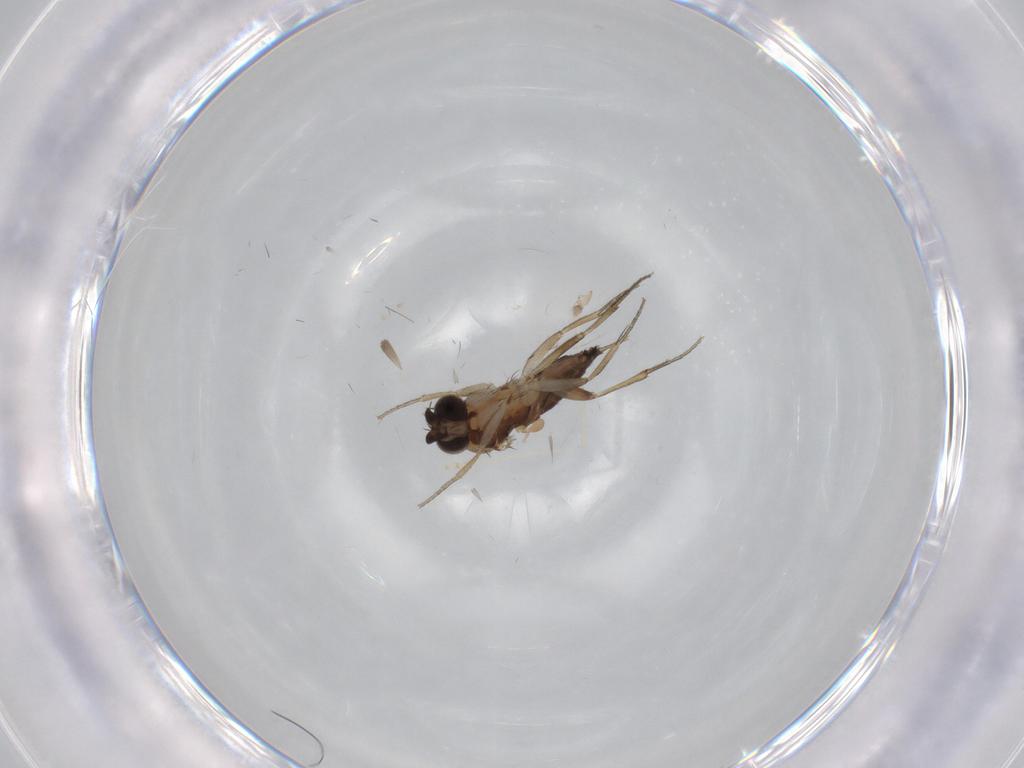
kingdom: Animalia
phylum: Arthropoda
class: Insecta
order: Diptera
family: Phoridae
